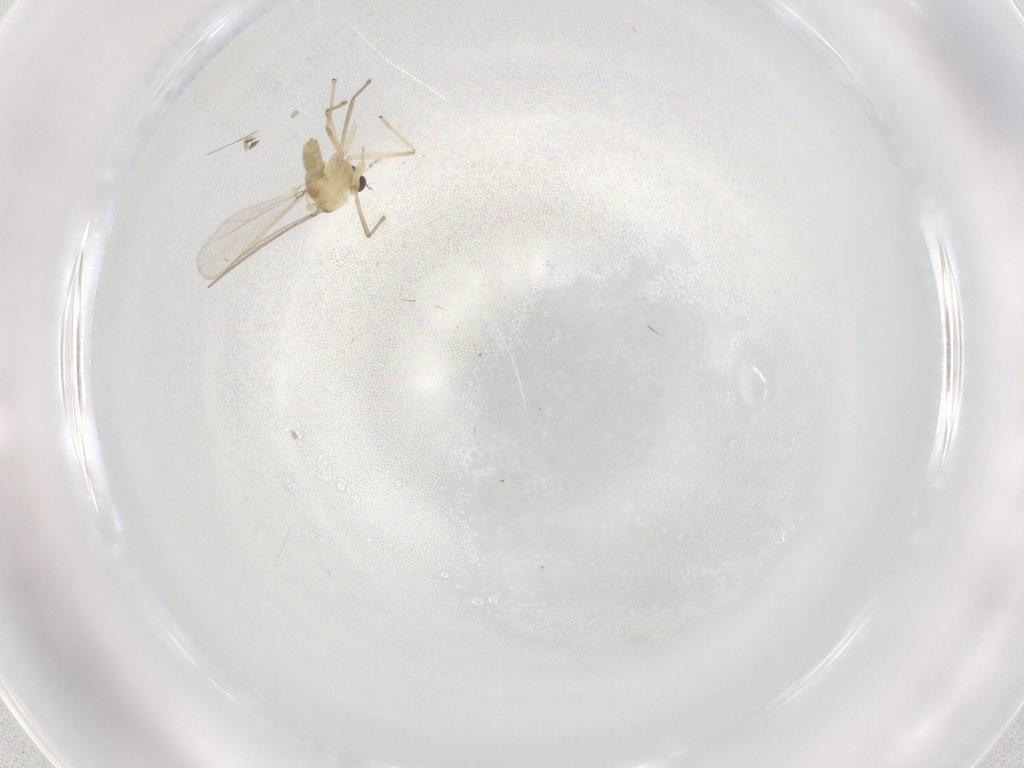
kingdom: Animalia
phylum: Arthropoda
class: Insecta
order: Diptera
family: Chironomidae
